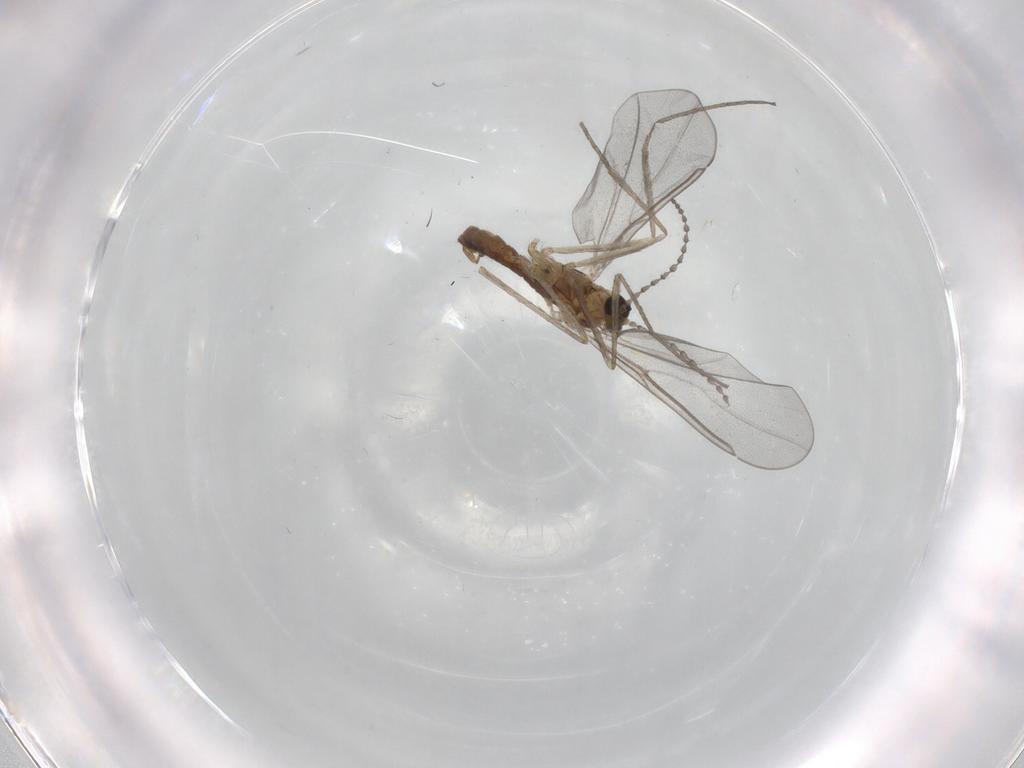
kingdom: Animalia
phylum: Arthropoda
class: Insecta
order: Diptera
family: Cecidomyiidae
